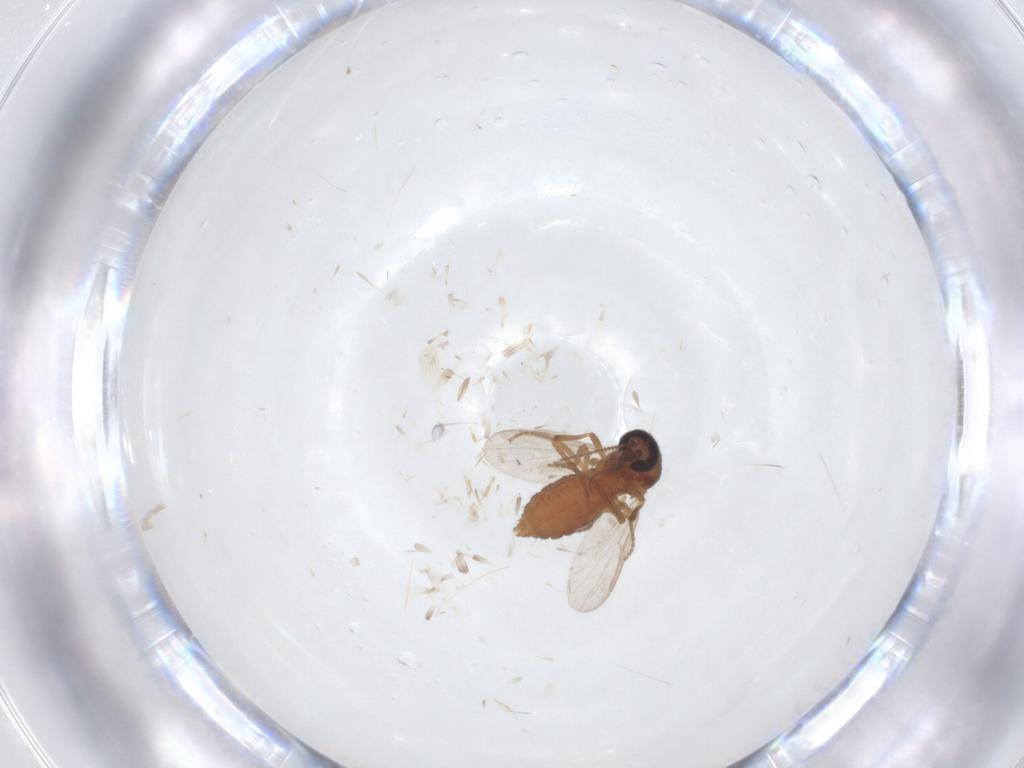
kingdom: Animalia
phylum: Arthropoda
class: Insecta
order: Diptera
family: Ceratopogonidae
